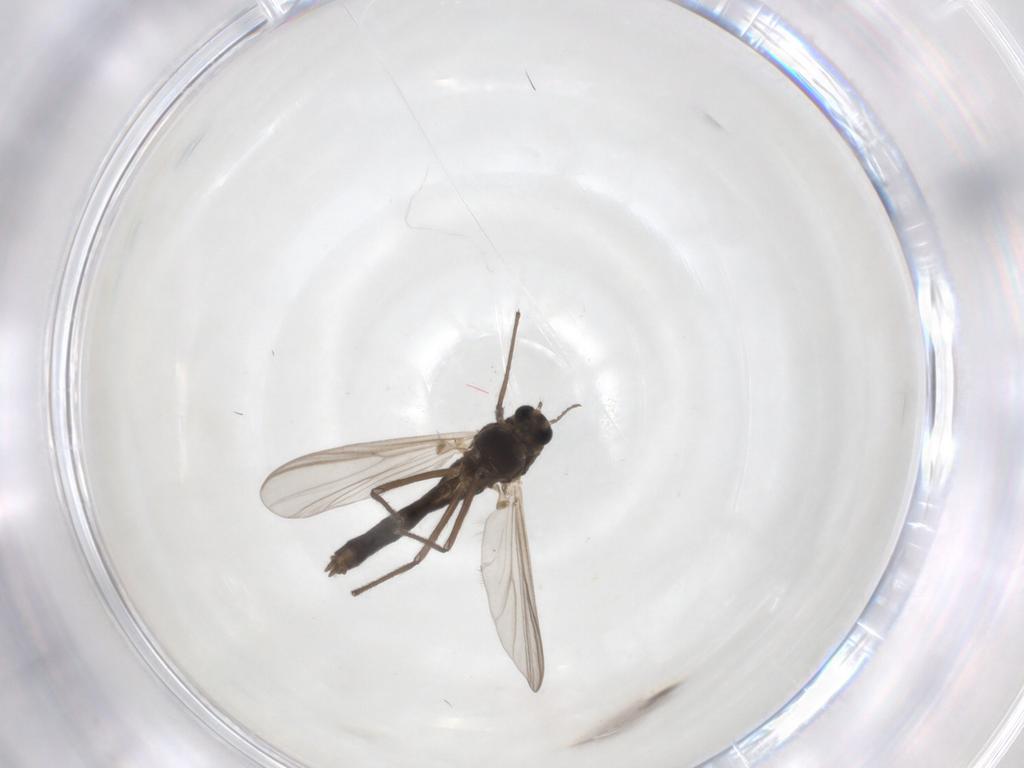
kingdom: Animalia
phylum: Arthropoda
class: Insecta
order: Diptera
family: Chironomidae
